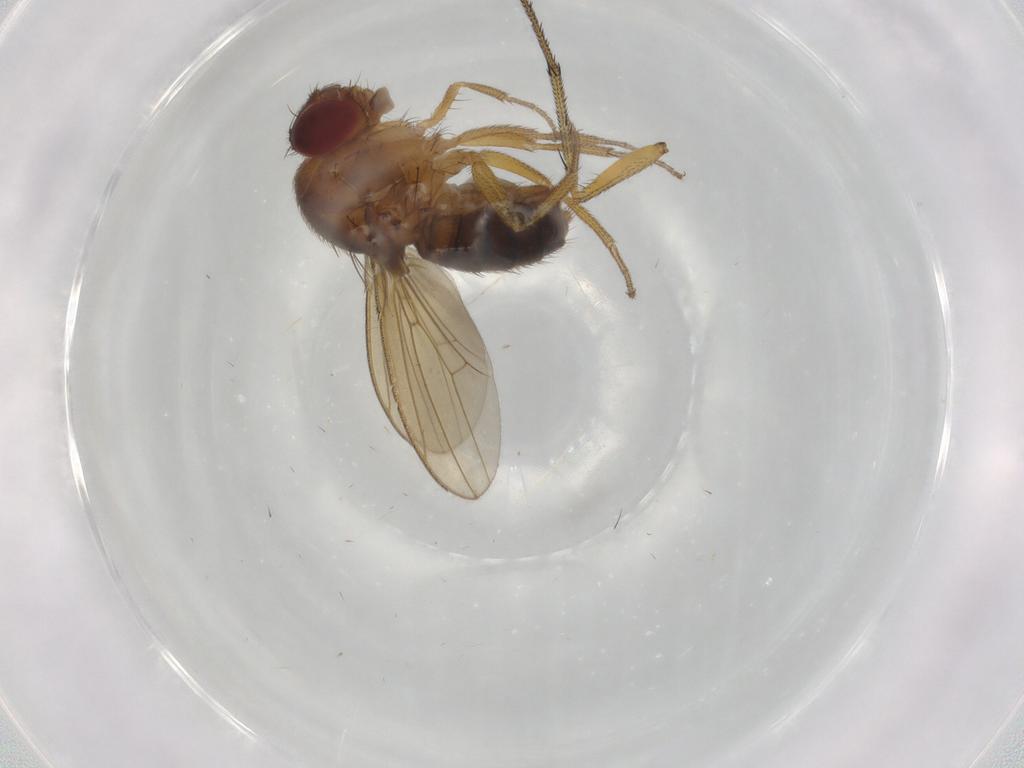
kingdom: Animalia
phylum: Arthropoda
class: Insecta
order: Diptera
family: Drosophilidae
